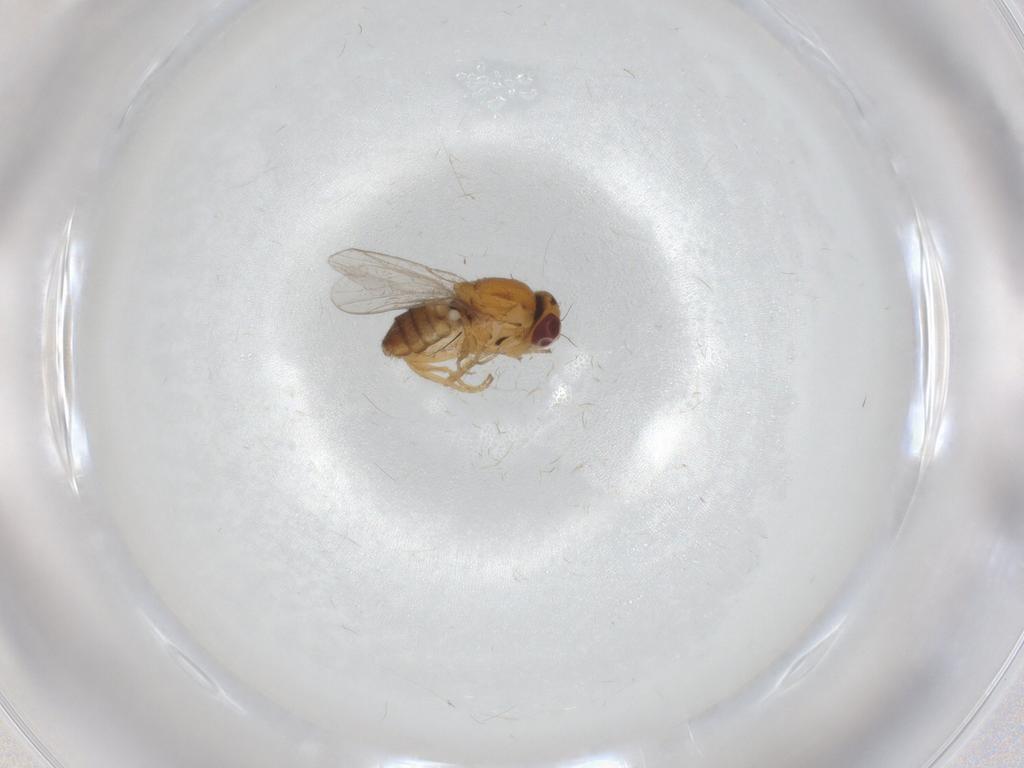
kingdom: Animalia
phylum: Arthropoda
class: Insecta
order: Diptera
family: Chloropidae
